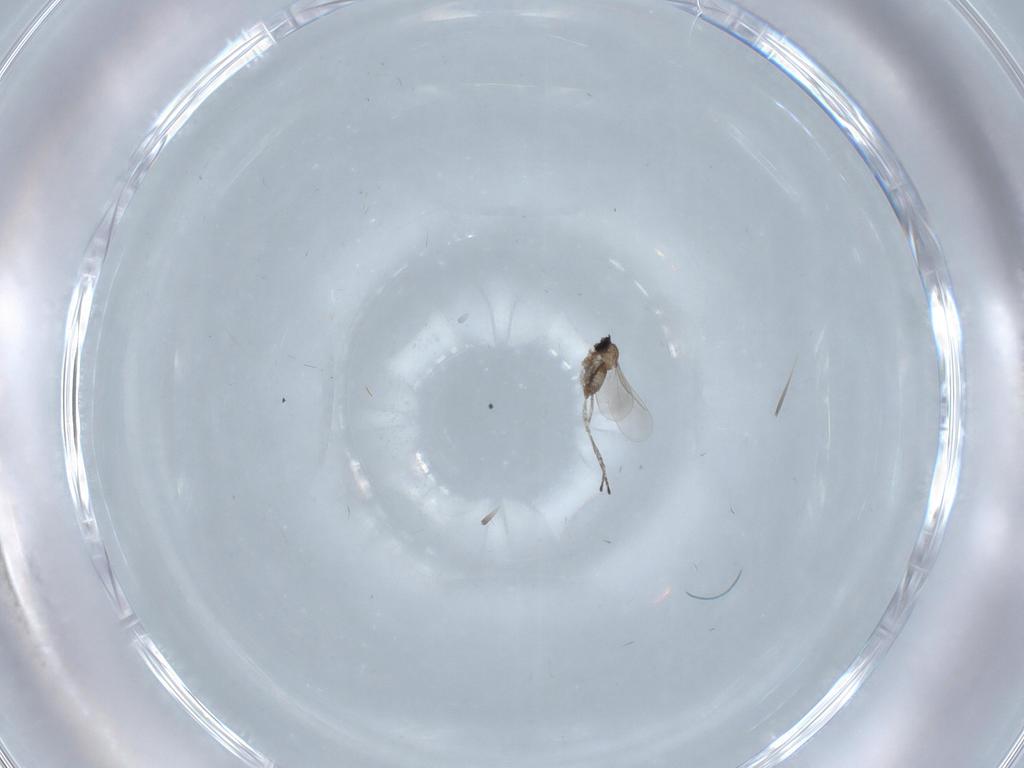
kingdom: Animalia
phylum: Arthropoda
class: Insecta
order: Diptera
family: Cecidomyiidae
